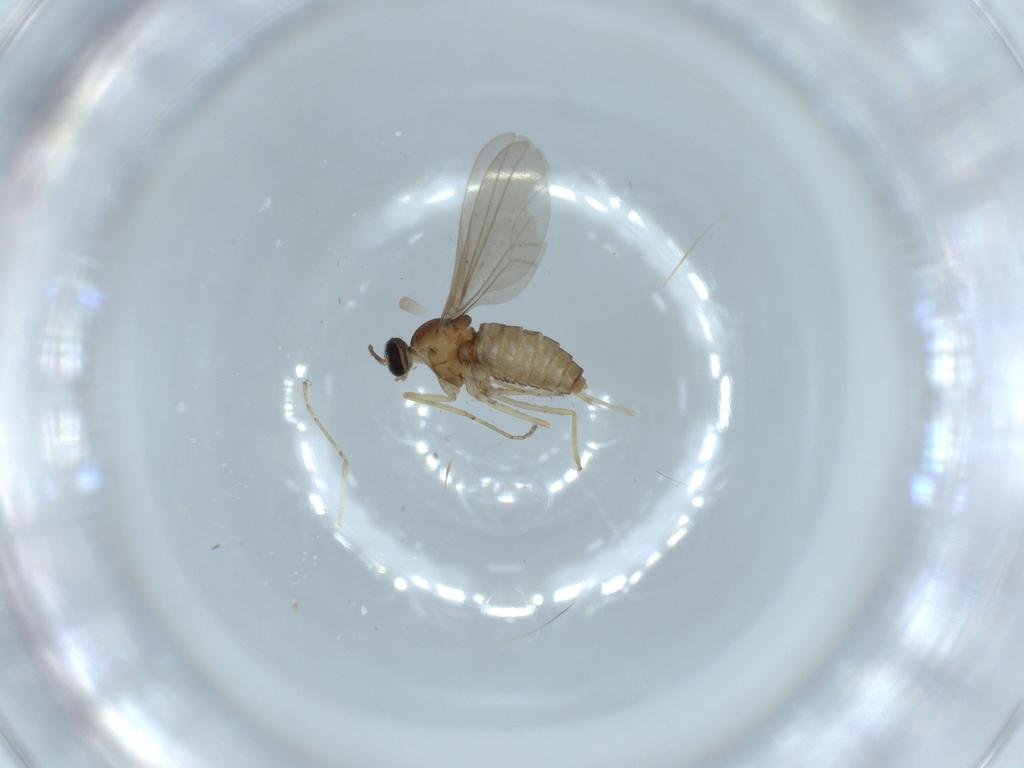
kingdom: Animalia
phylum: Arthropoda
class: Insecta
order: Diptera
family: Cecidomyiidae
